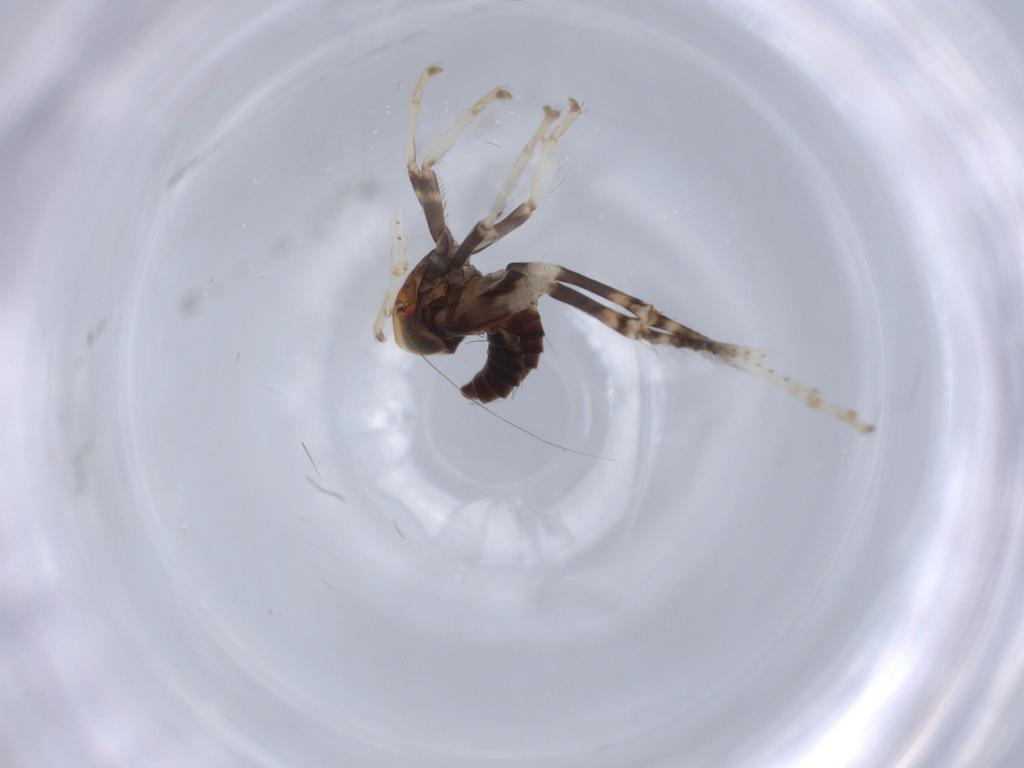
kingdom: Animalia
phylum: Arthropoda
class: Insecta
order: Hemiptera
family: Cicadellidae
